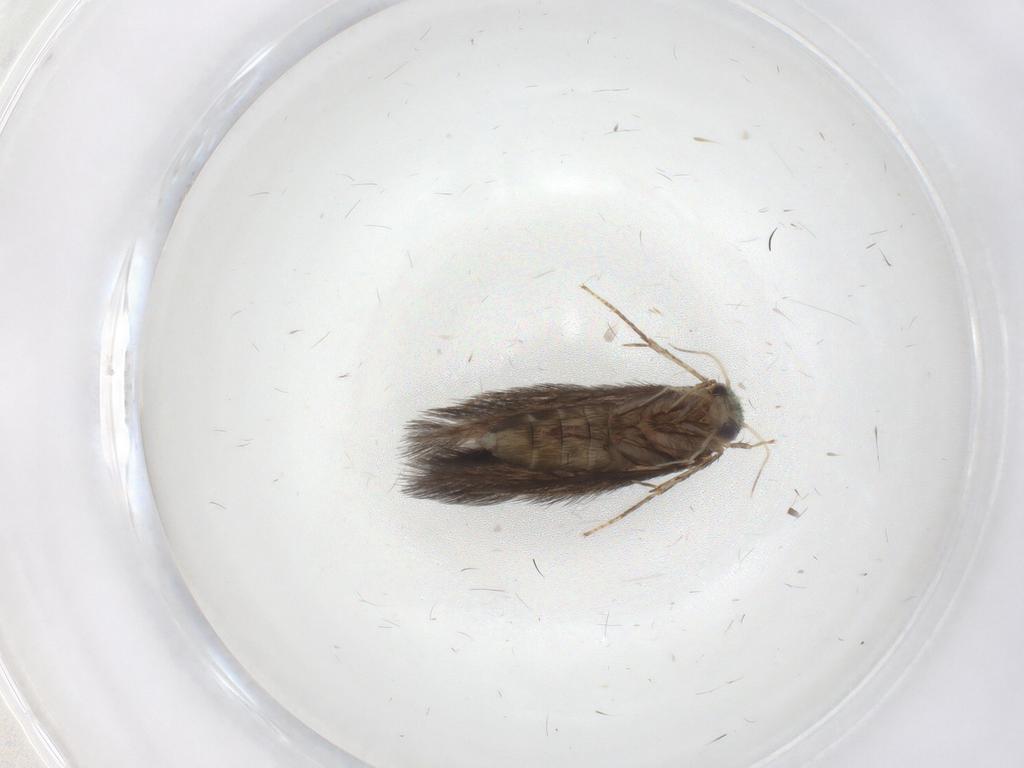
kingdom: Animalia
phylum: Arthropoda
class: Insecta
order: Trichoptera
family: Hydroptilidae
